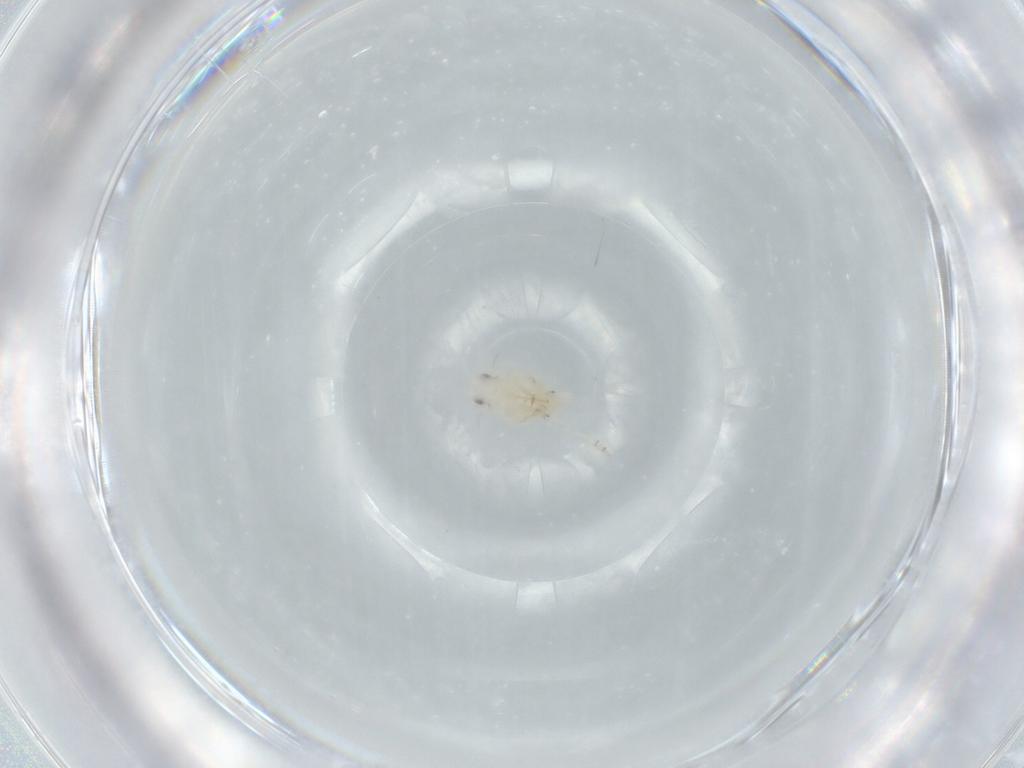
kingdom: Animalia
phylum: Arthropoda
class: Insecta
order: Hemiptera
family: Flatidae
